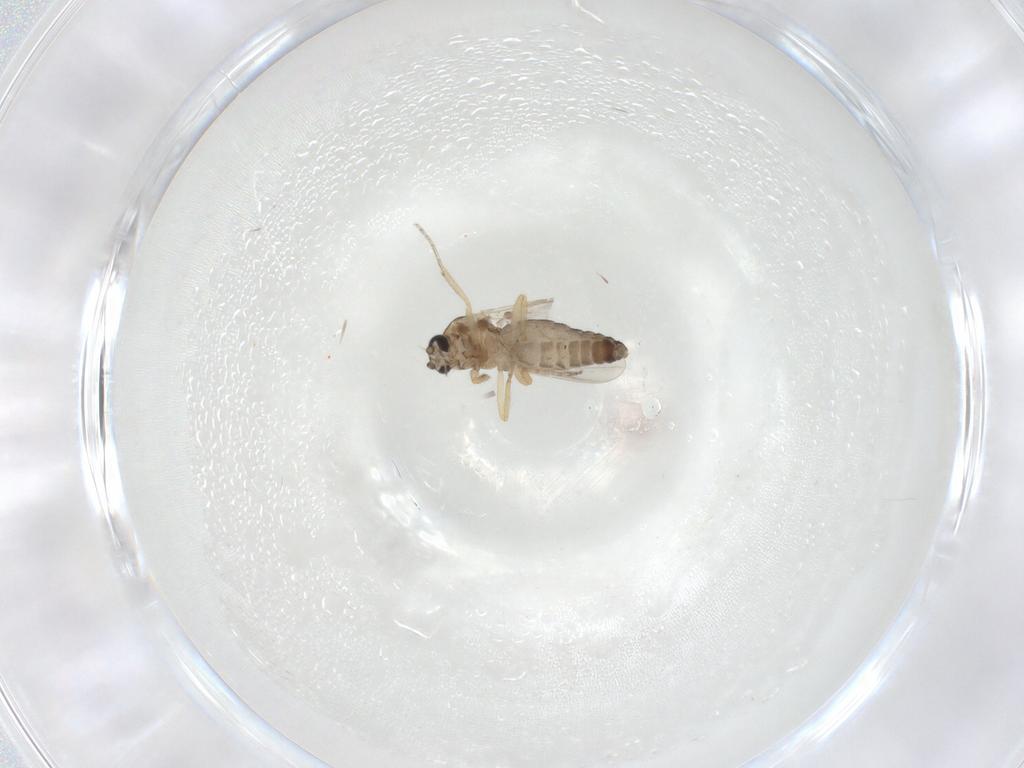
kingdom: Animalia
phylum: Arthropoda
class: Insecta
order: Diptera
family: Ceratopogonidae
